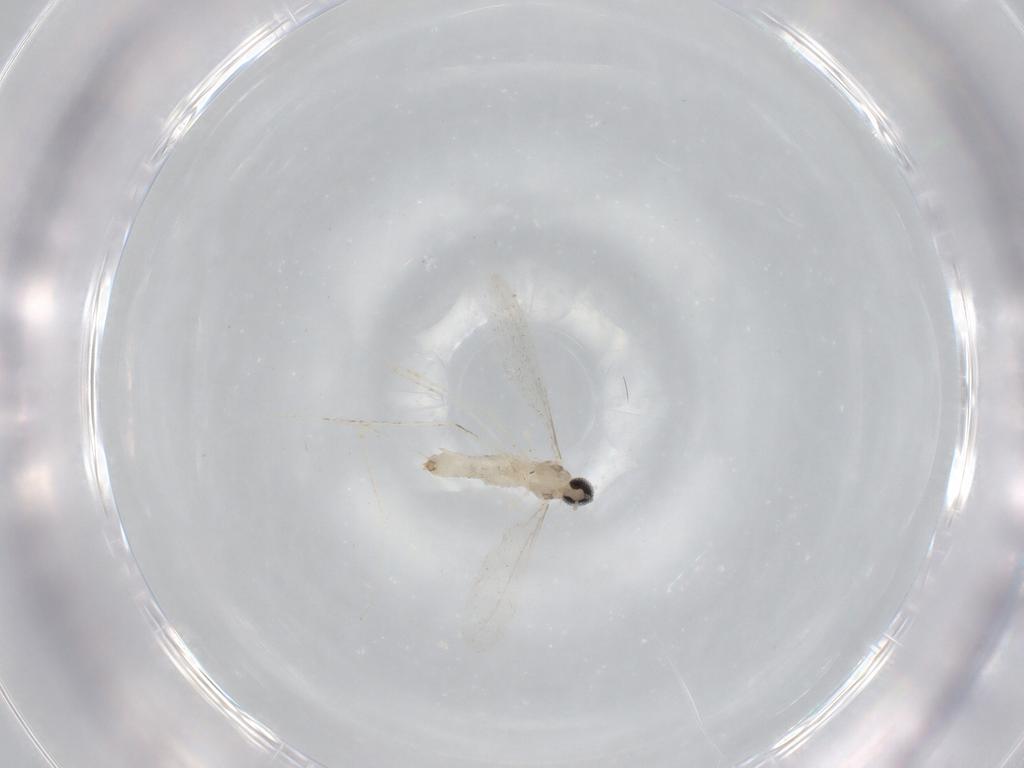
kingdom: Animalia
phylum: Arthropoda
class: Insecta
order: Diptera
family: Cecidomyiidae
